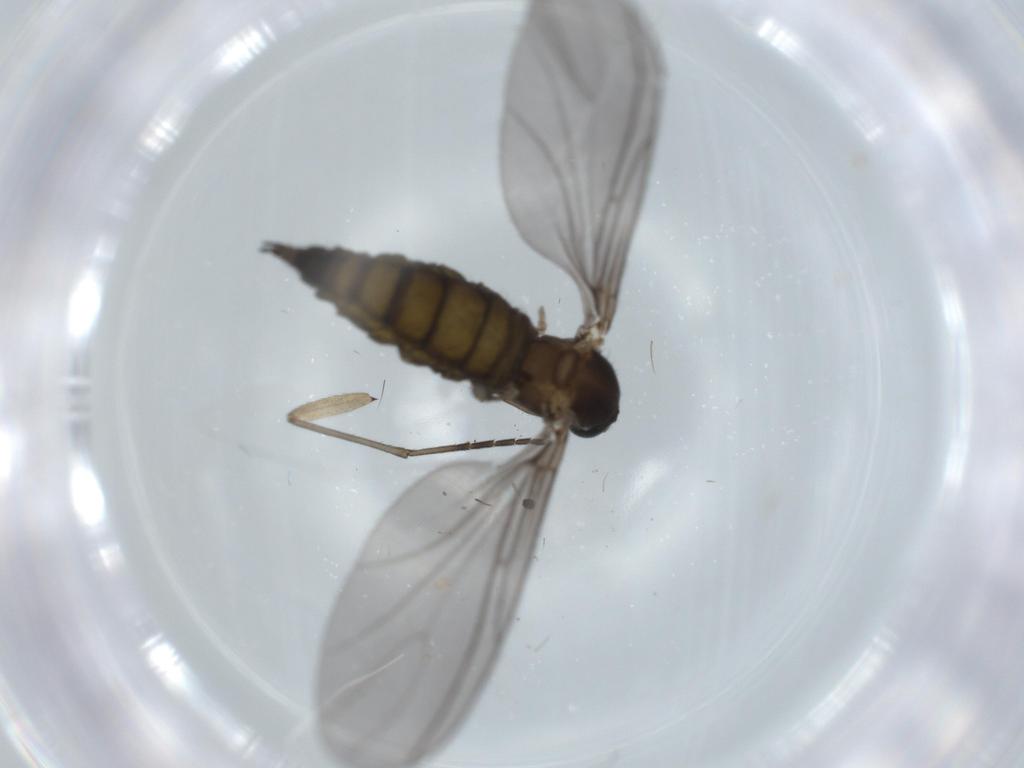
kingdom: Animalia
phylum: Arthropoda
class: Insecta
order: Diptera
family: Sciaridae
